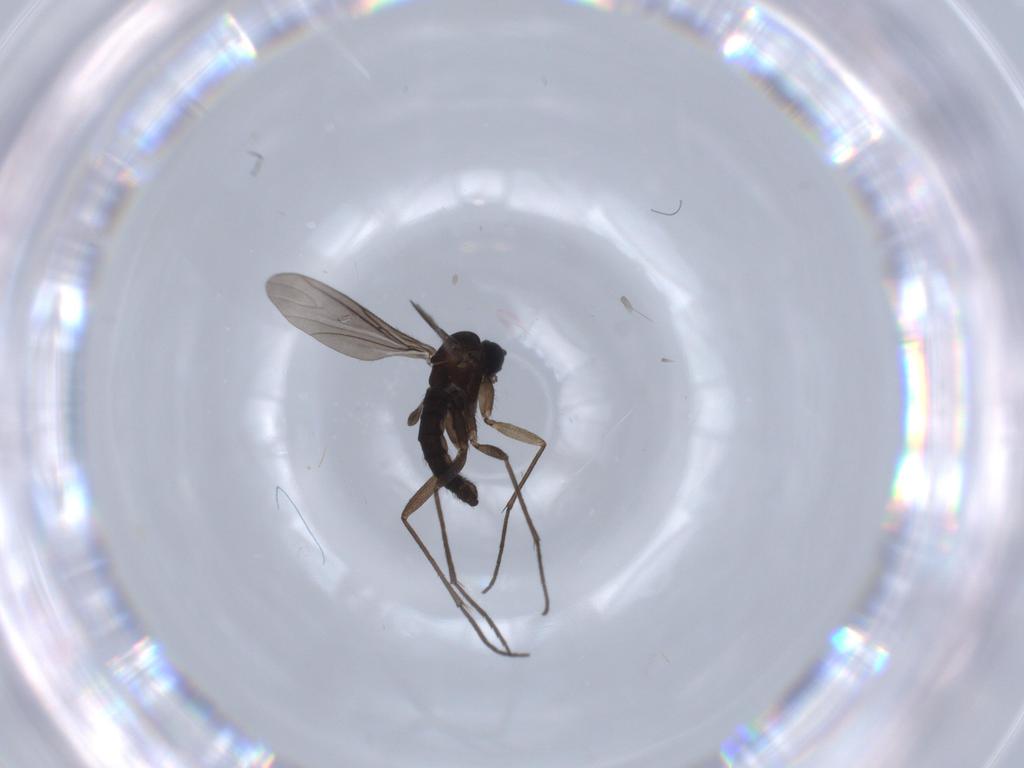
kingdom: Animalia
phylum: Arthropoda
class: Insecta
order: Diptera
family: Sciaridae
